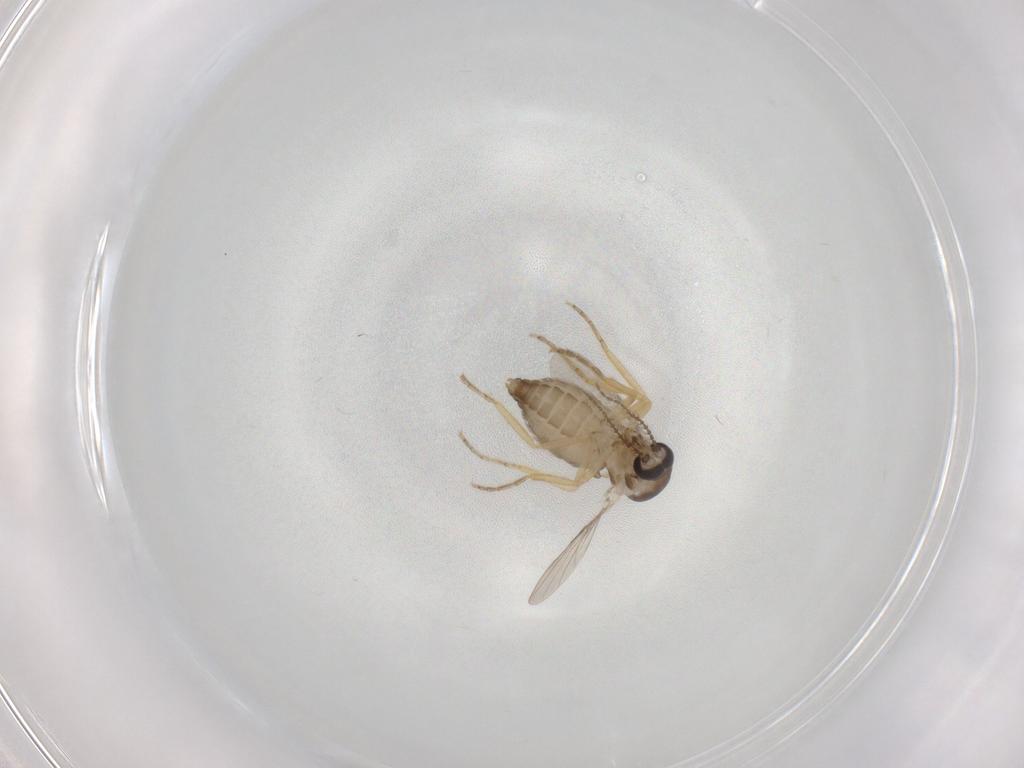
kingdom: Animalia
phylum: Arthropoda
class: Insecta
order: Diptera
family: Ceratopogonidae
